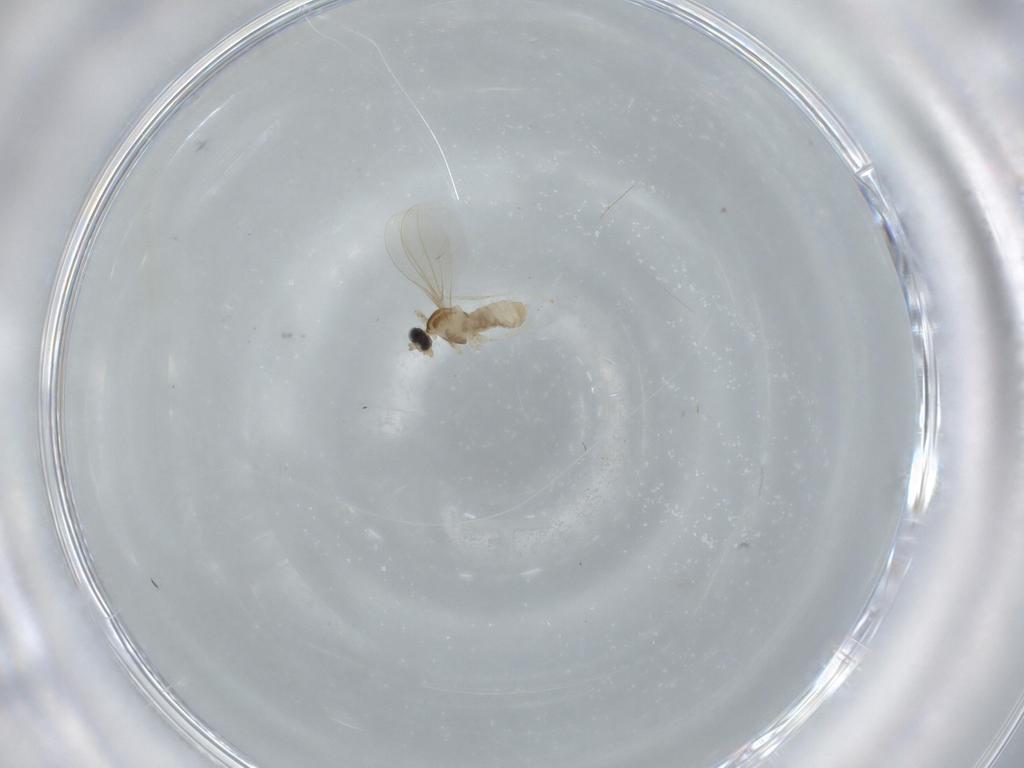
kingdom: Animalia
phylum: Arthropoda
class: Insecta
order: Diptera
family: Cecidomyiidae
